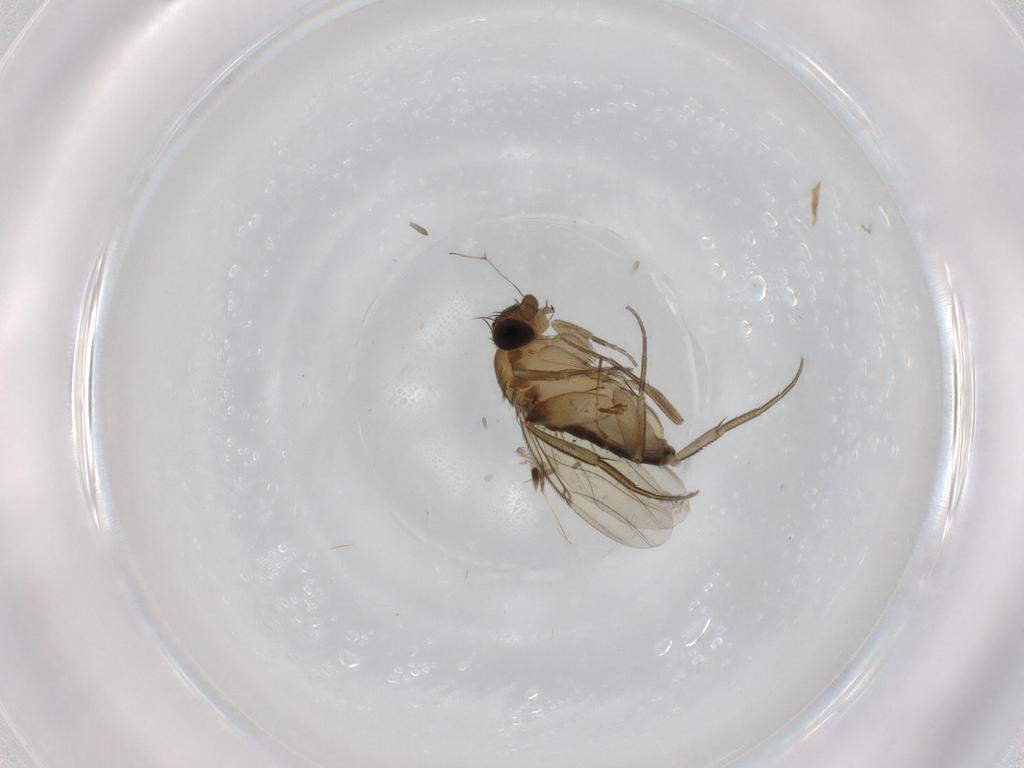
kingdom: Animalia
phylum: Arthropoda
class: Insecta
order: Diptera
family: Phoridae
